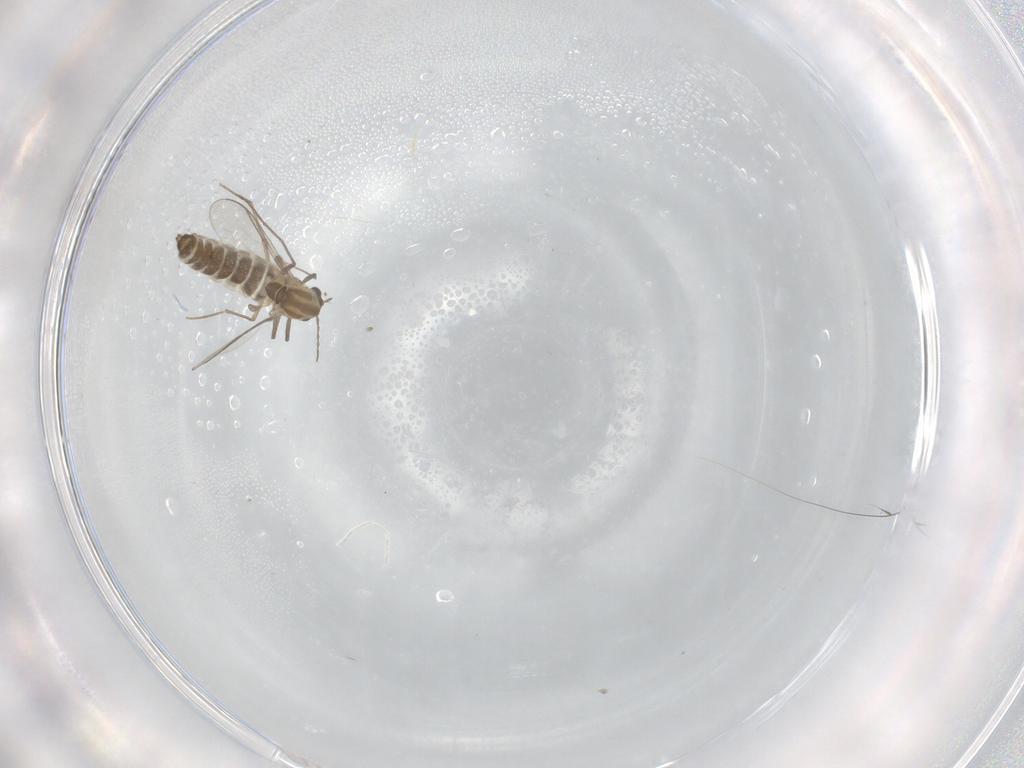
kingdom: Animalia
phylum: Arthropoda
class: Insecta
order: Diptera
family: Chironomidae
